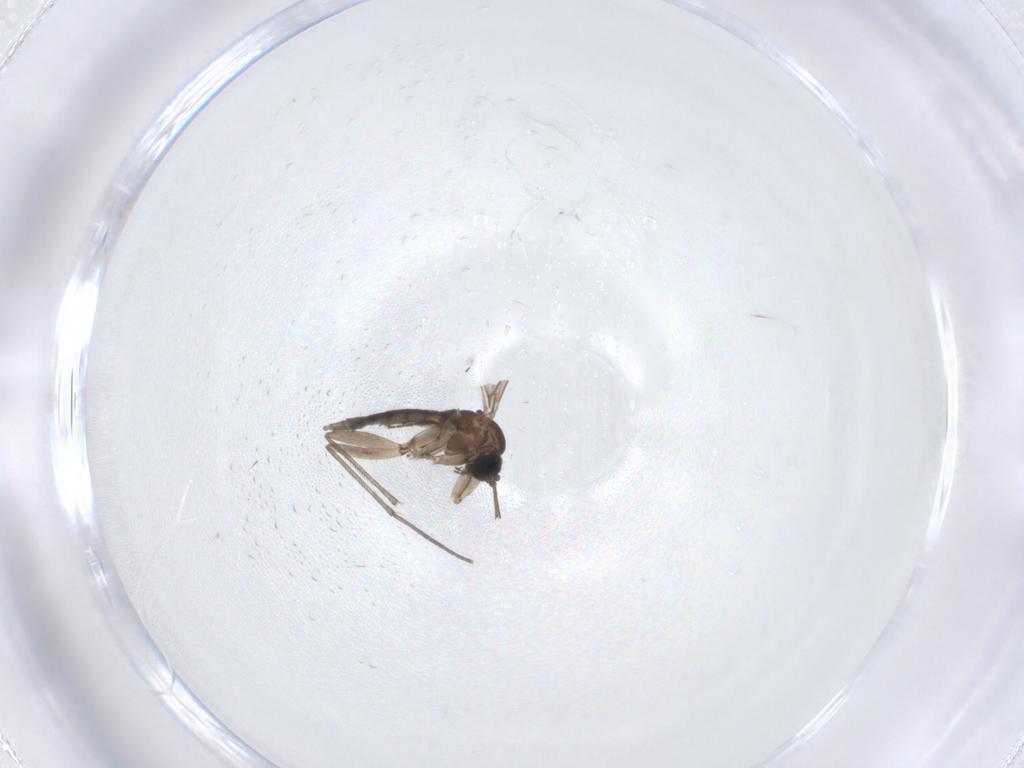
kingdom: Animalia
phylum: Arthropoda
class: Insecta
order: Diptera
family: Sciaridae
